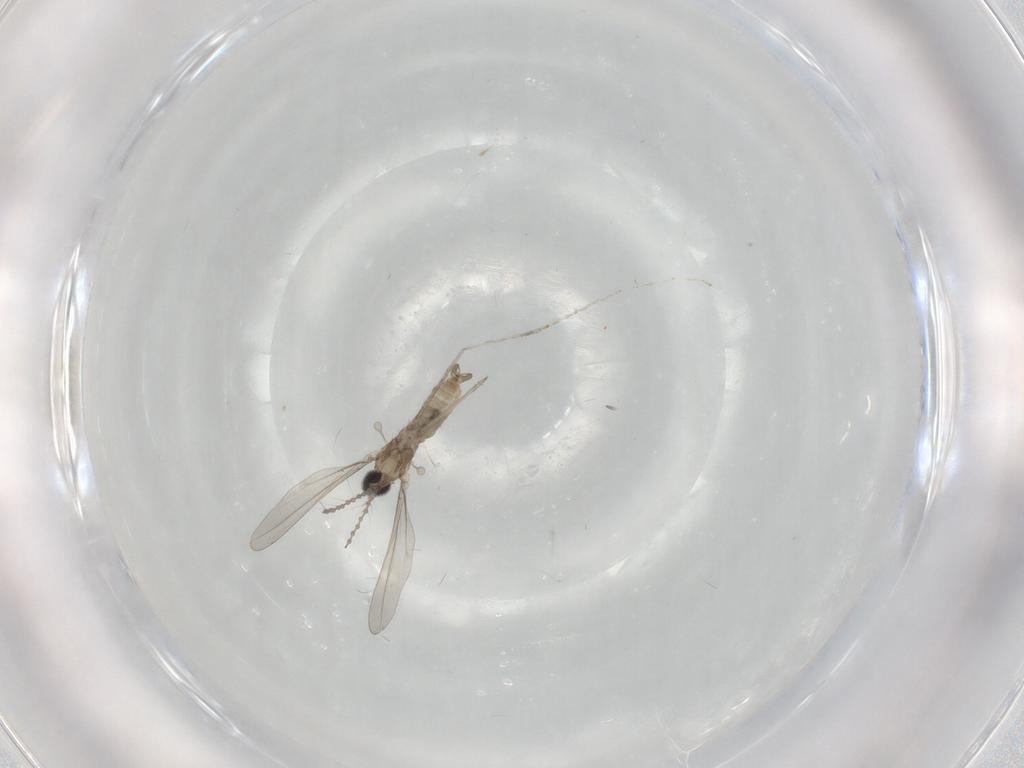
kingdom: Animalia
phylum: Arthropoda
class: Insecta
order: Diptera
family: Cecidomyiidae
